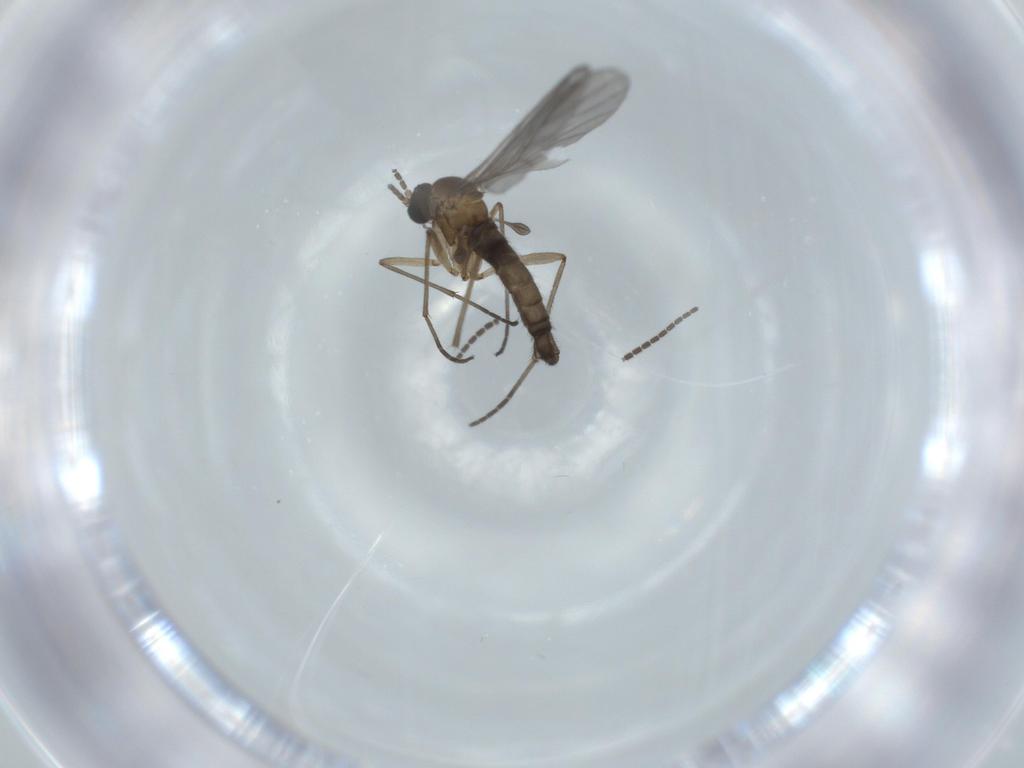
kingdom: Animalia
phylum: Arthropoda
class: Insecta
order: Diptera
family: Sciaridae
